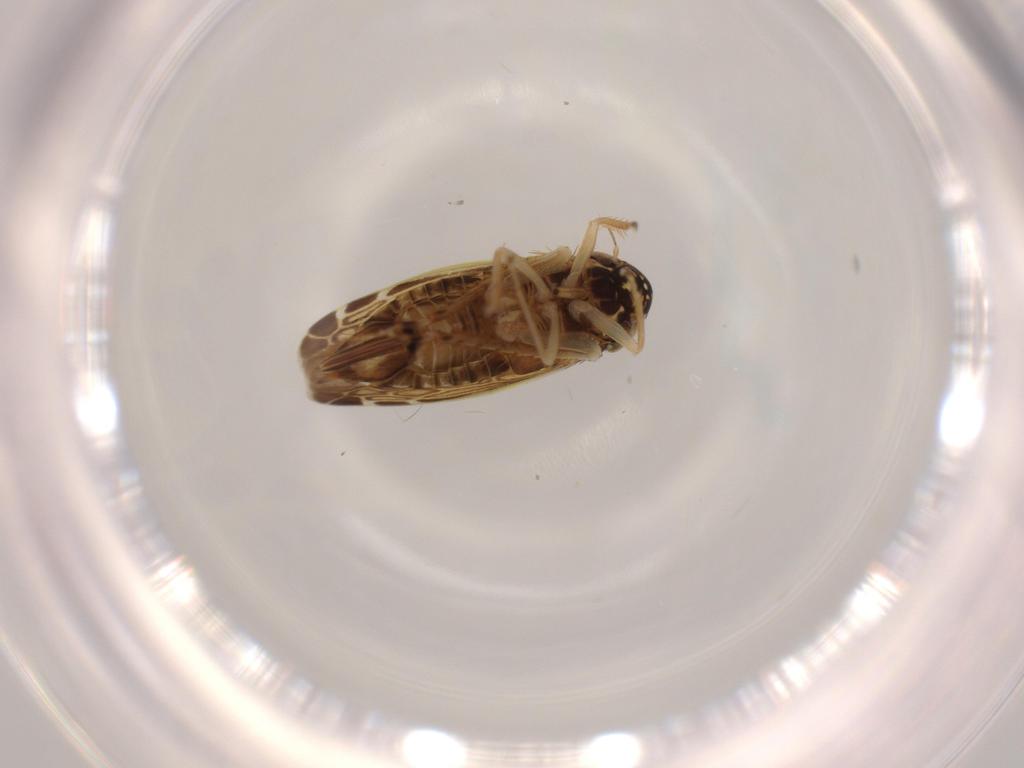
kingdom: Animalia
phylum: Arthropoda
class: Insecta
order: Hemiptera
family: Cicadellidae
